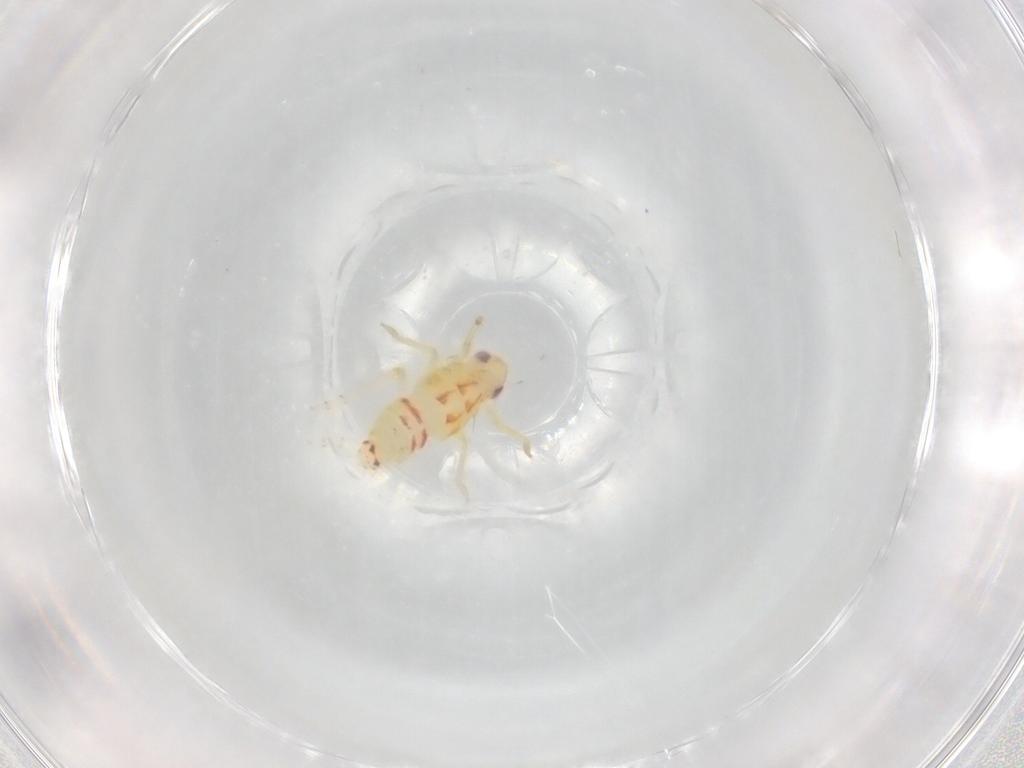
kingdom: Animalia
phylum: Arthropoda
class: Insecta
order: Hemiptera
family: Tropiduchidae
